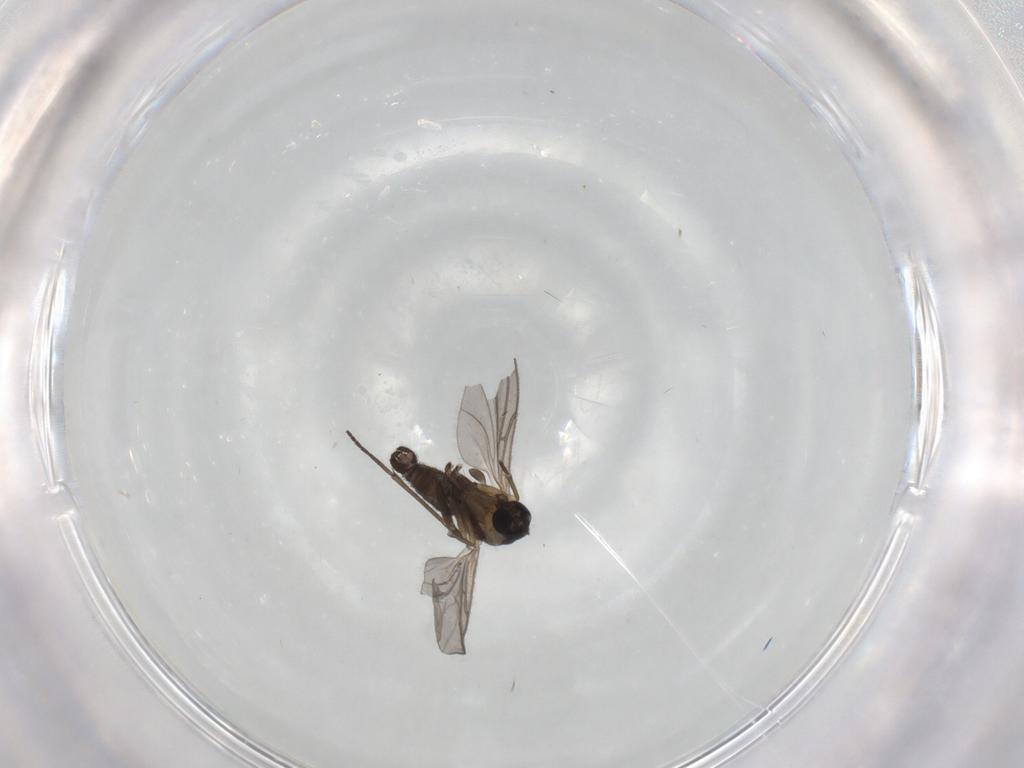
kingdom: Animalia
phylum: Arthropoda
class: Insecta
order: Diptera
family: Sciaridae
